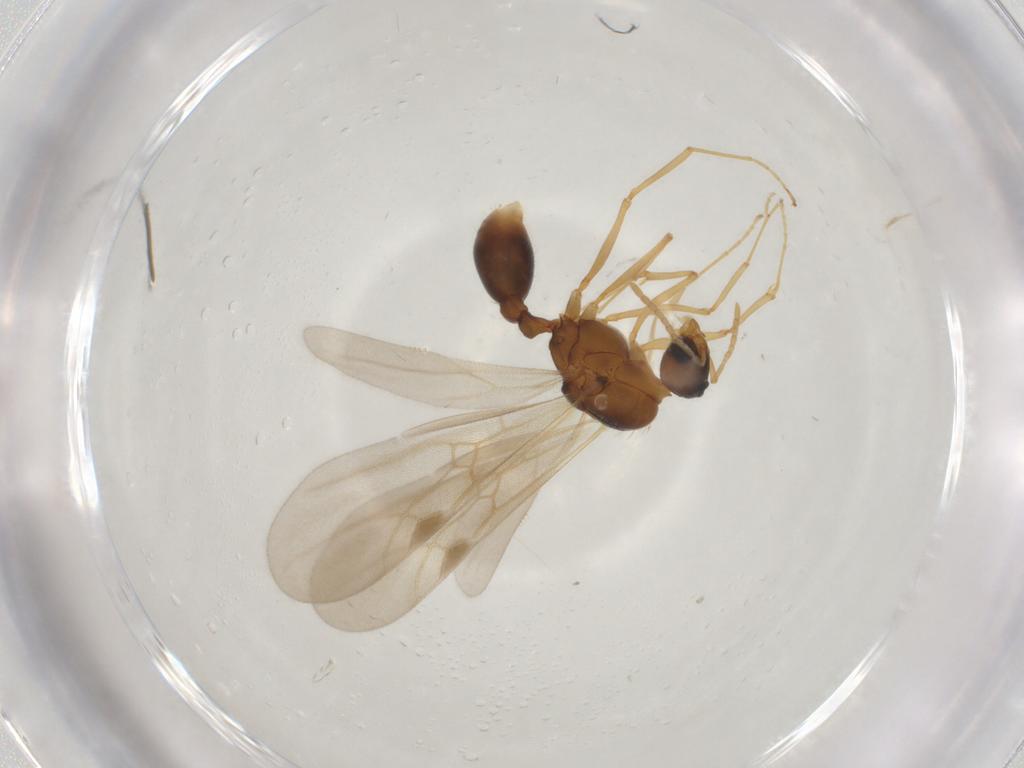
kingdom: Animalia
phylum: Arthropoda
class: Insecta
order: Hymenoptera
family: Formicidae
